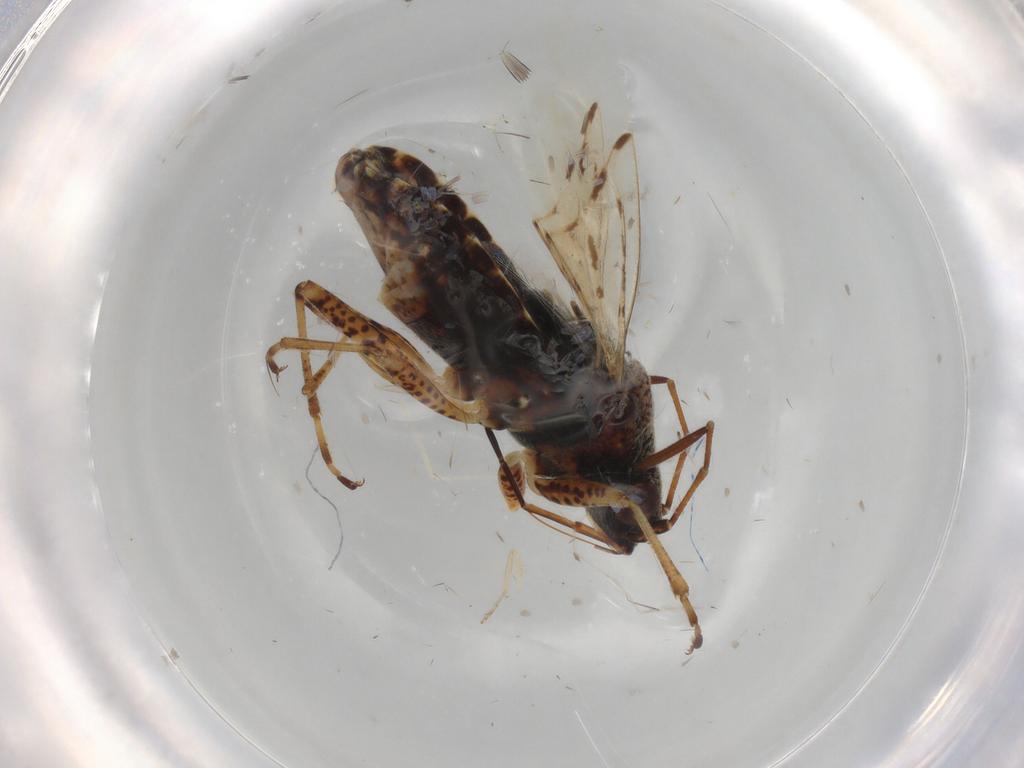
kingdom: Animalia
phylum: Arthropoda
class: Insecta
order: Hemiptera
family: Lygaeidae
